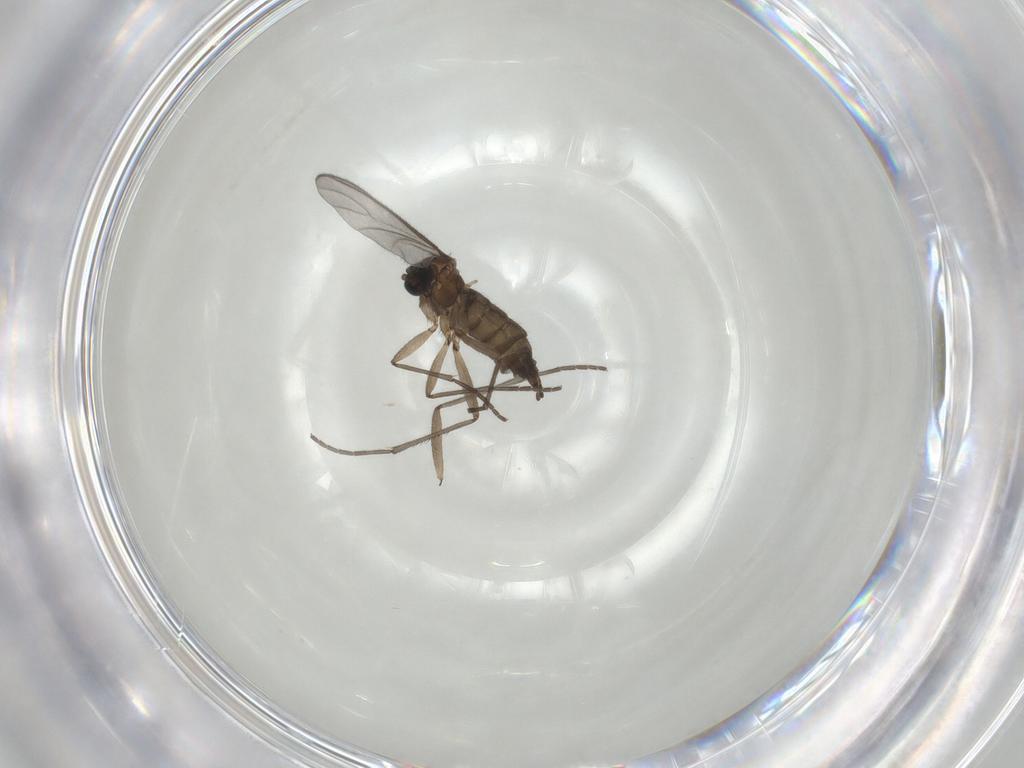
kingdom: Animalia
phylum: Arthropoda
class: Insecta
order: Diptera
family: Sciaridae
